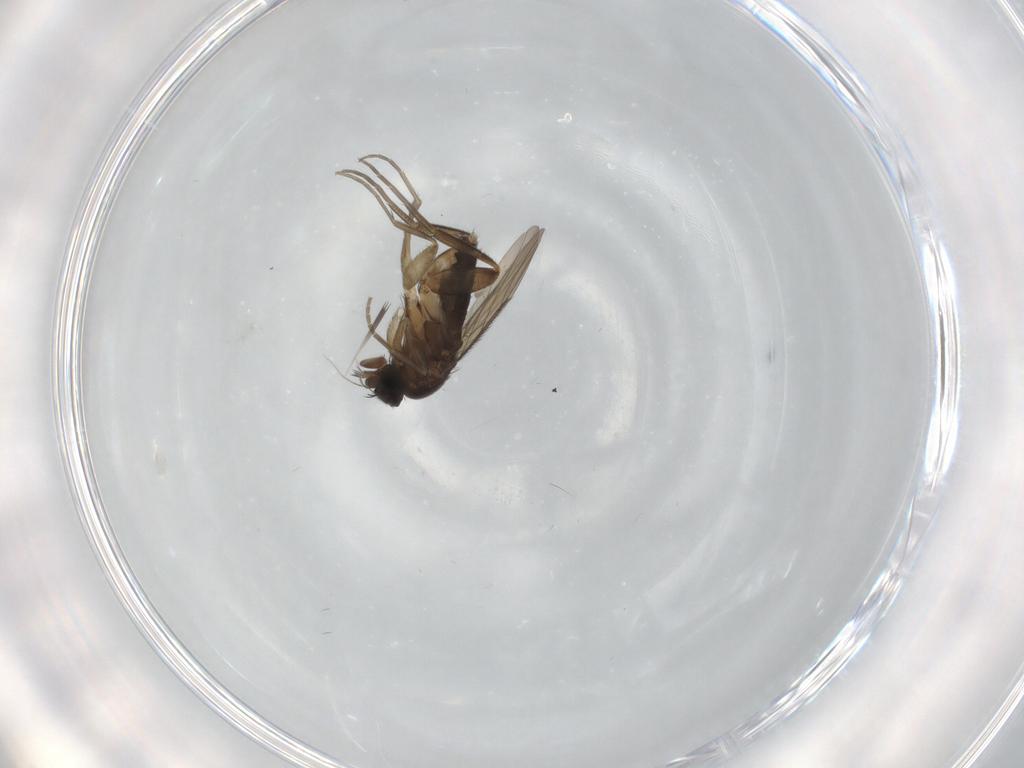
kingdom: Animalia
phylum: Arthropoda
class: Insecta
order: Diptera
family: Phoridae
